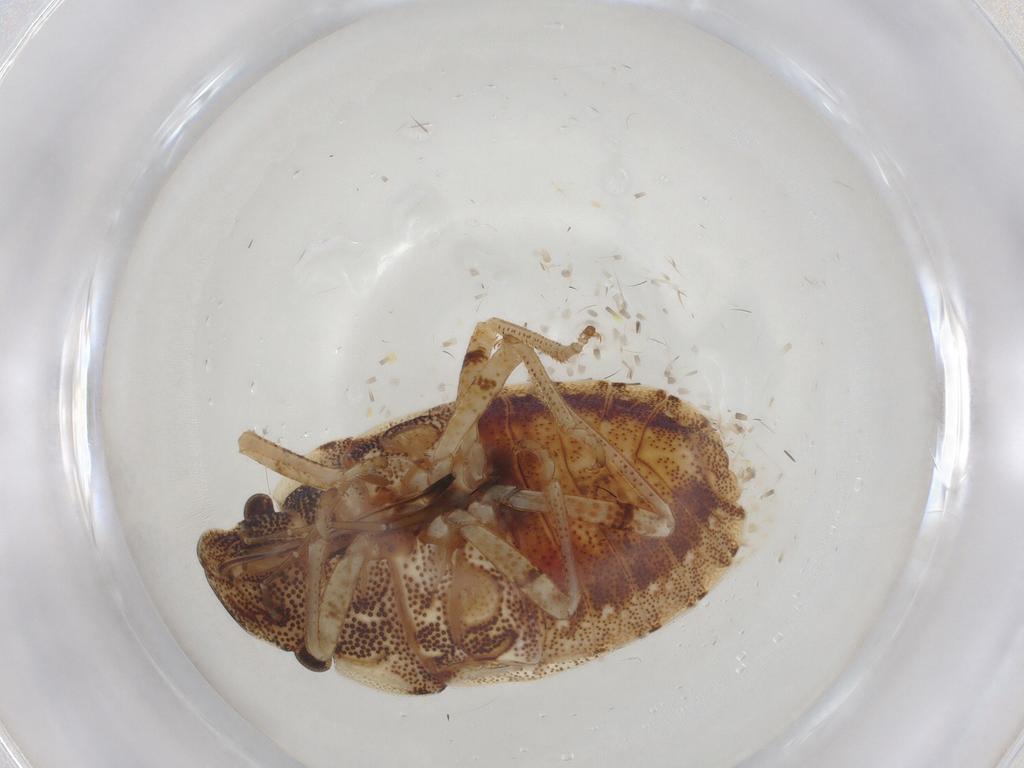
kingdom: Animalia
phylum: Arthropoda
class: Insecta
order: Hemiptera
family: Pentatomidae
